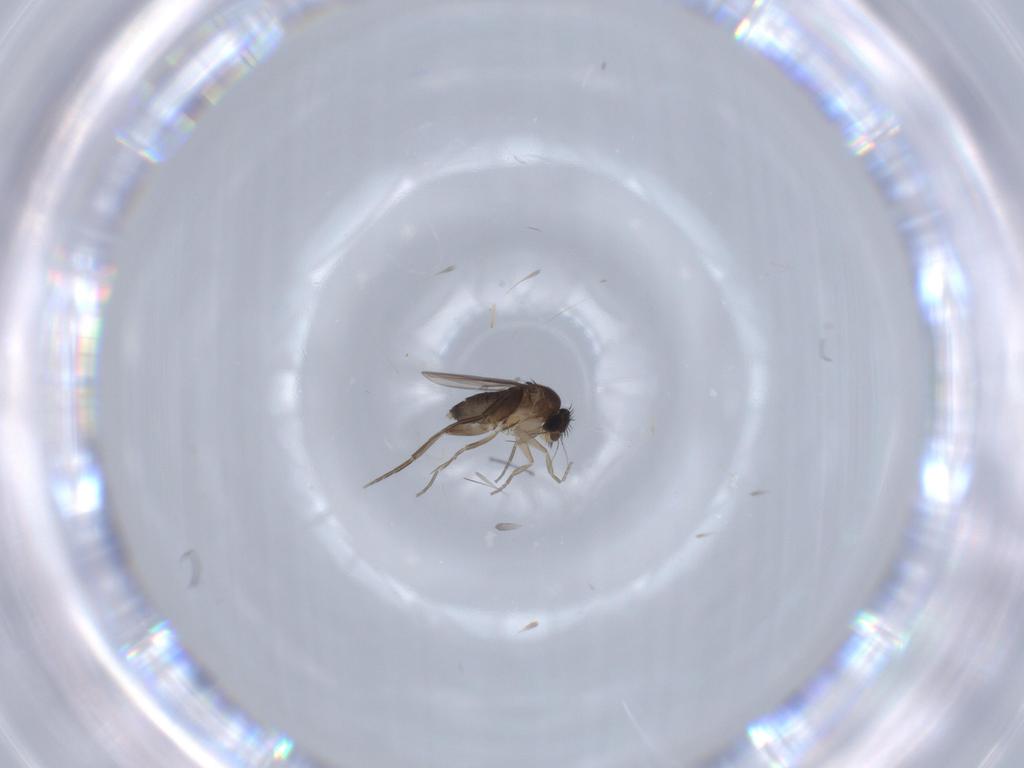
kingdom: Animalia
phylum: Arthropoda
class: Insecta
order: Diptera
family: Phoridae
